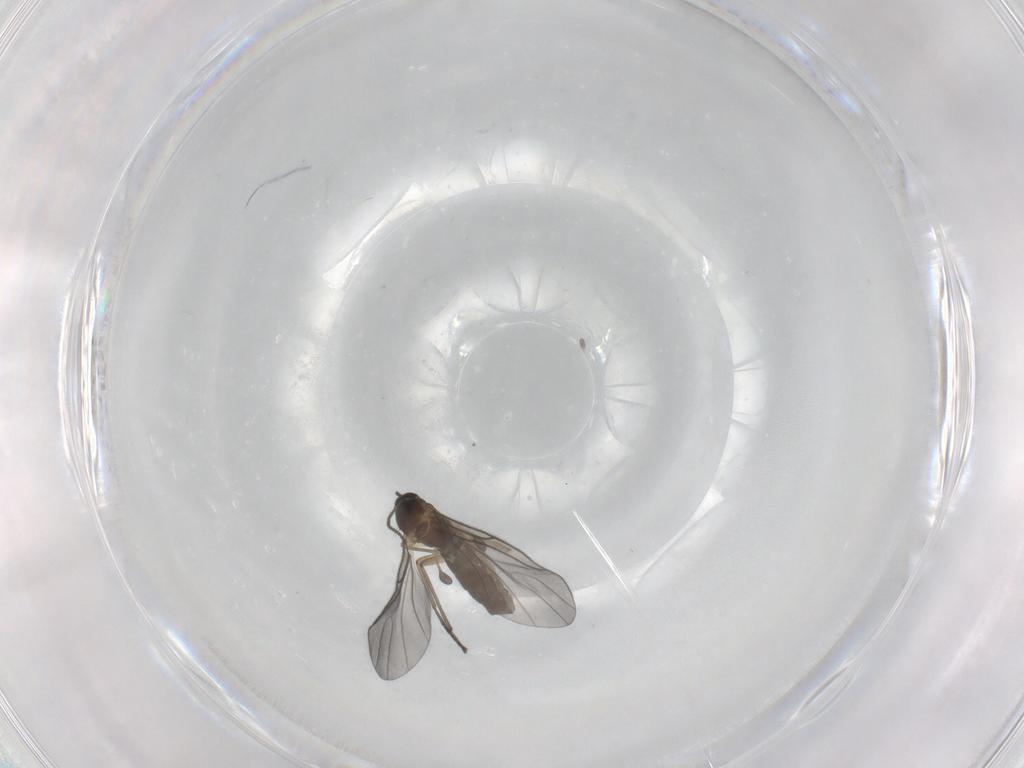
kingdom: Animalia
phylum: Arthropoda
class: Insecta
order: Diptera
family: Sciaridae
